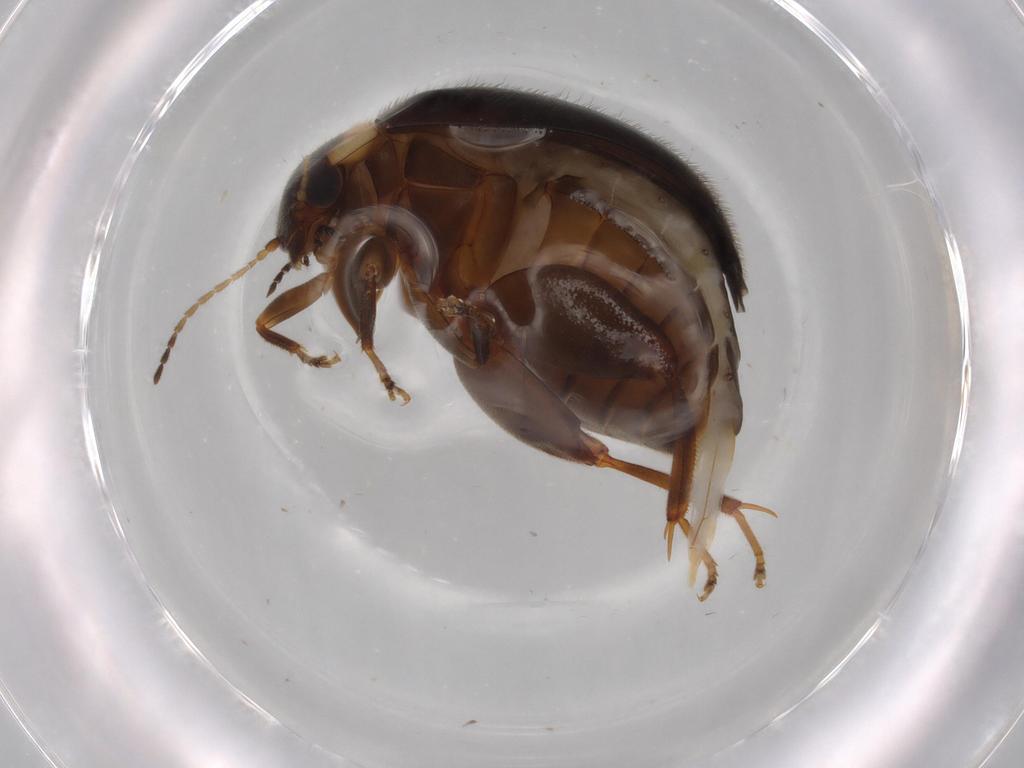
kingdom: Animalia
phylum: Arthropoda
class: Insecta
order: Coleoptera
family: Scirtidae
